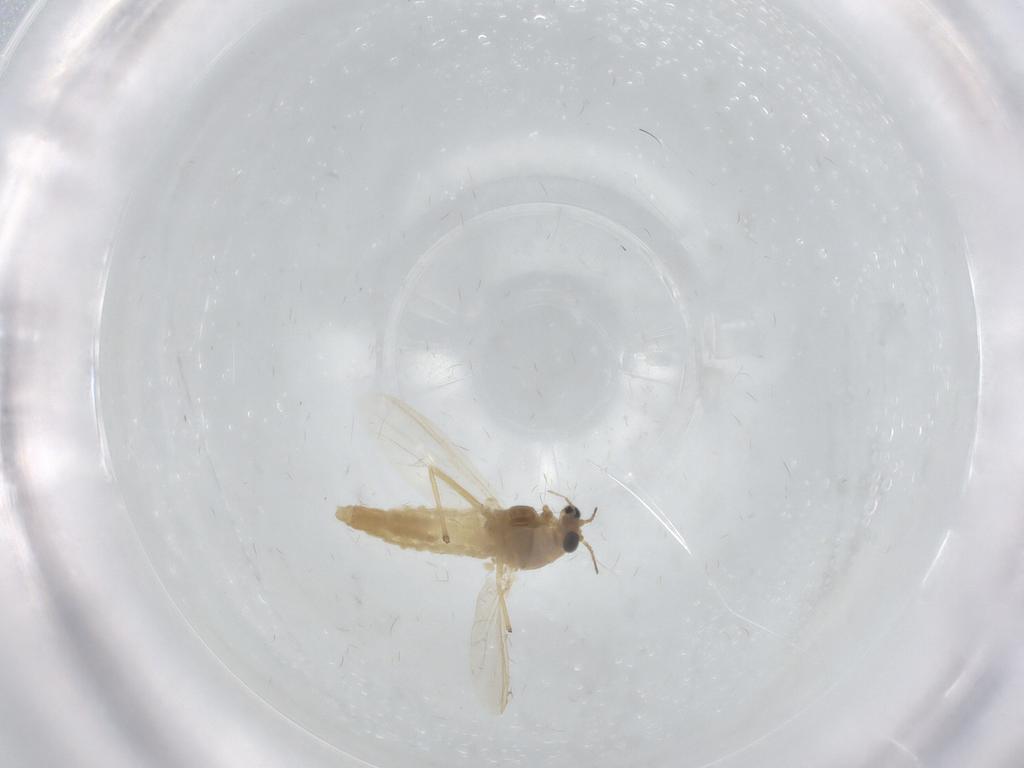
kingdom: Animalia
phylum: Arthropoda
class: Insecta
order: Diptera
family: Chironomidae
